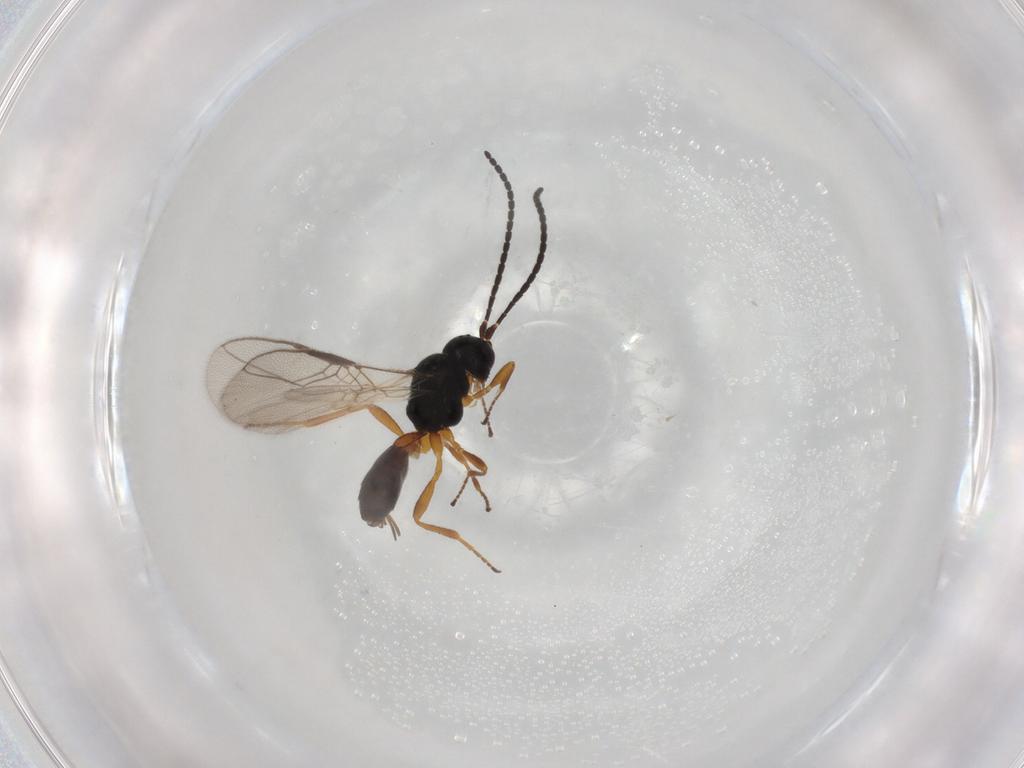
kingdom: Animalia
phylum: Arthropoda
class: Insecta
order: Hymenoptera
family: Braconidae
